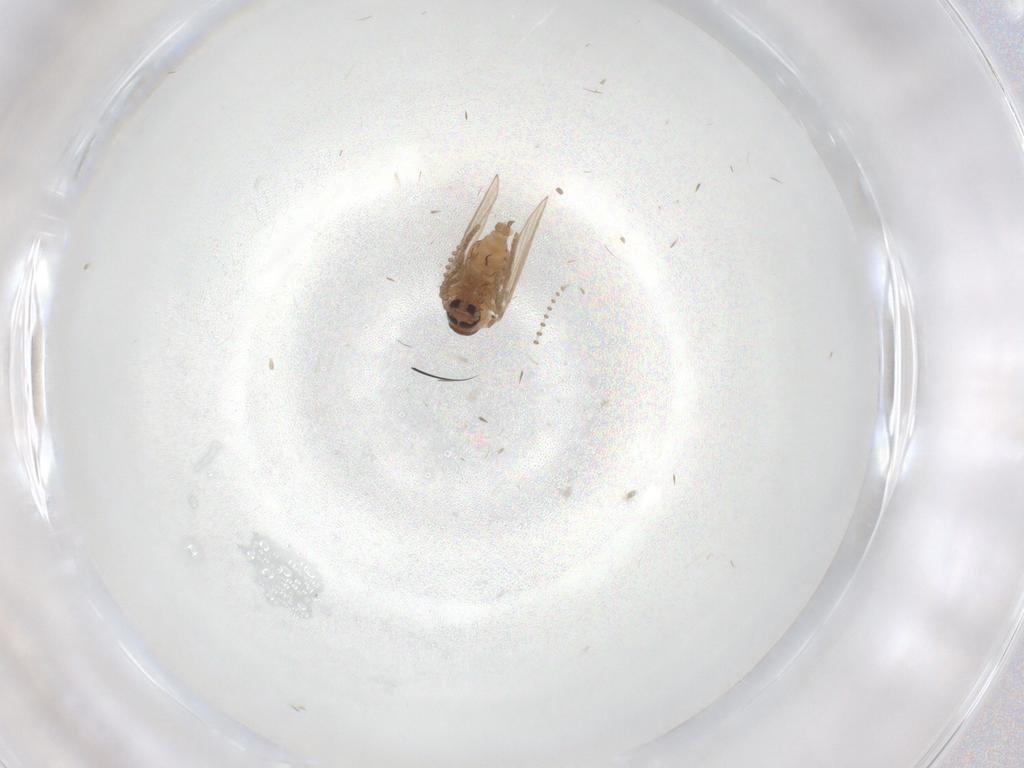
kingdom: Animalia
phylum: Arthropoda
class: Insecta
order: Diptera
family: Psychodidae
